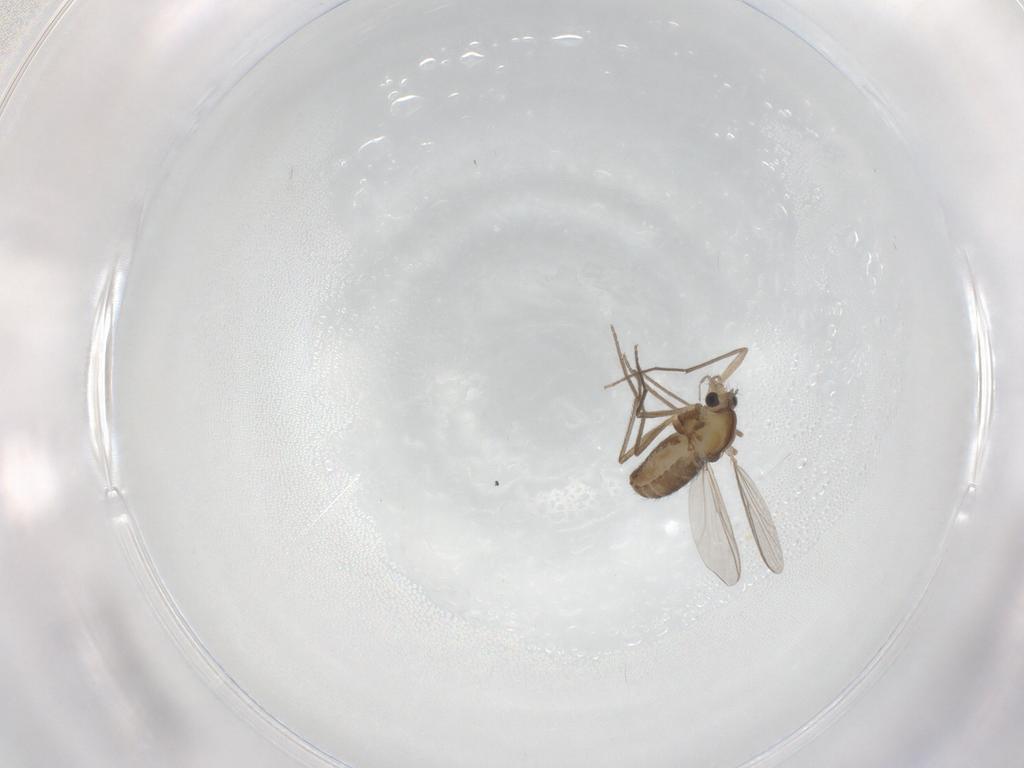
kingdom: Animalia
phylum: Arthropoda
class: Insecta
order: Diptera
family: Chironomidae
